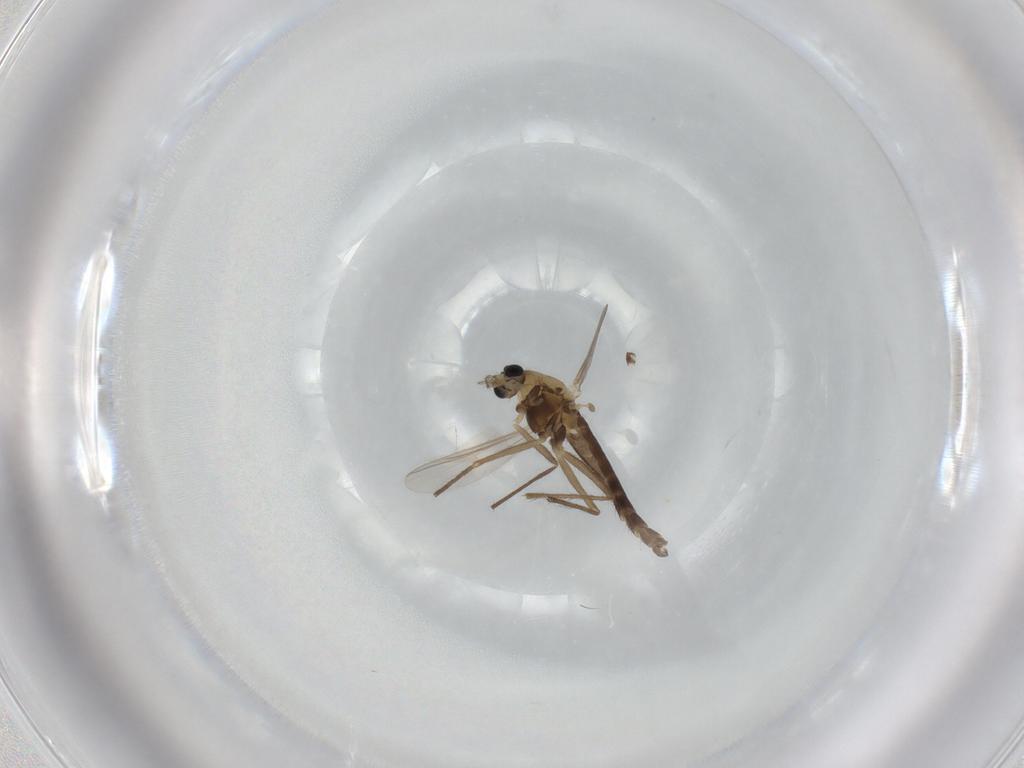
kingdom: Animalia
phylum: Arthropoda
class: Insecta
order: Diptera
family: Chironomidae
